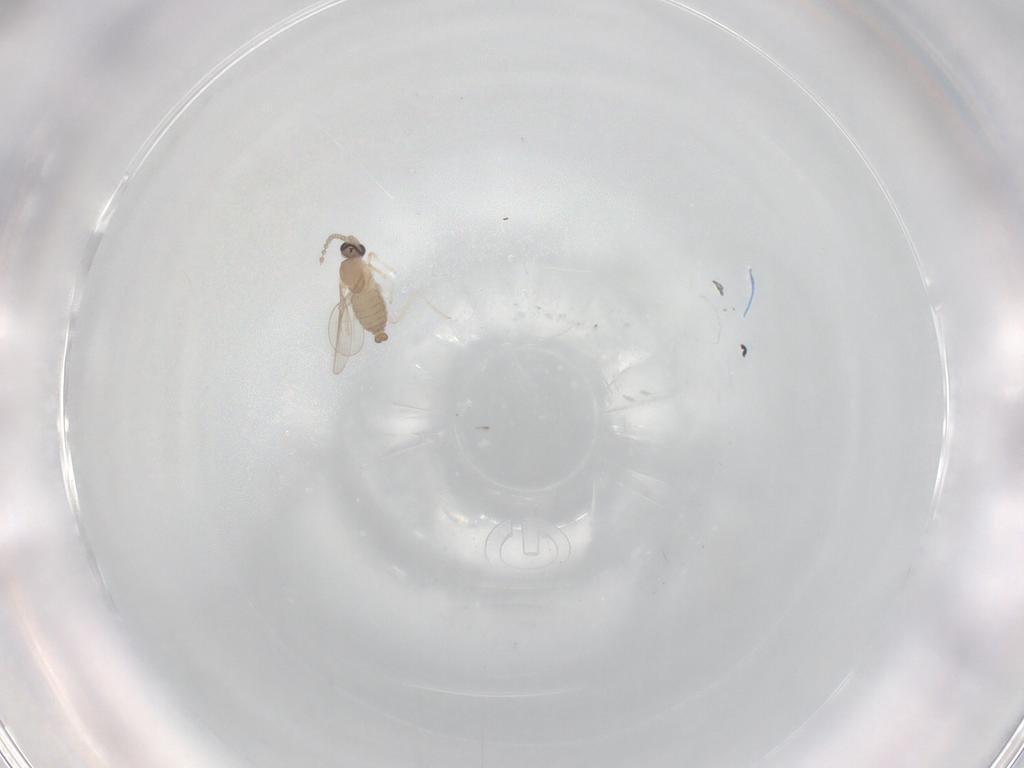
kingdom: Animalia
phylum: Arthropoda
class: Insecta
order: Diptera
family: Cecidomyiidae
